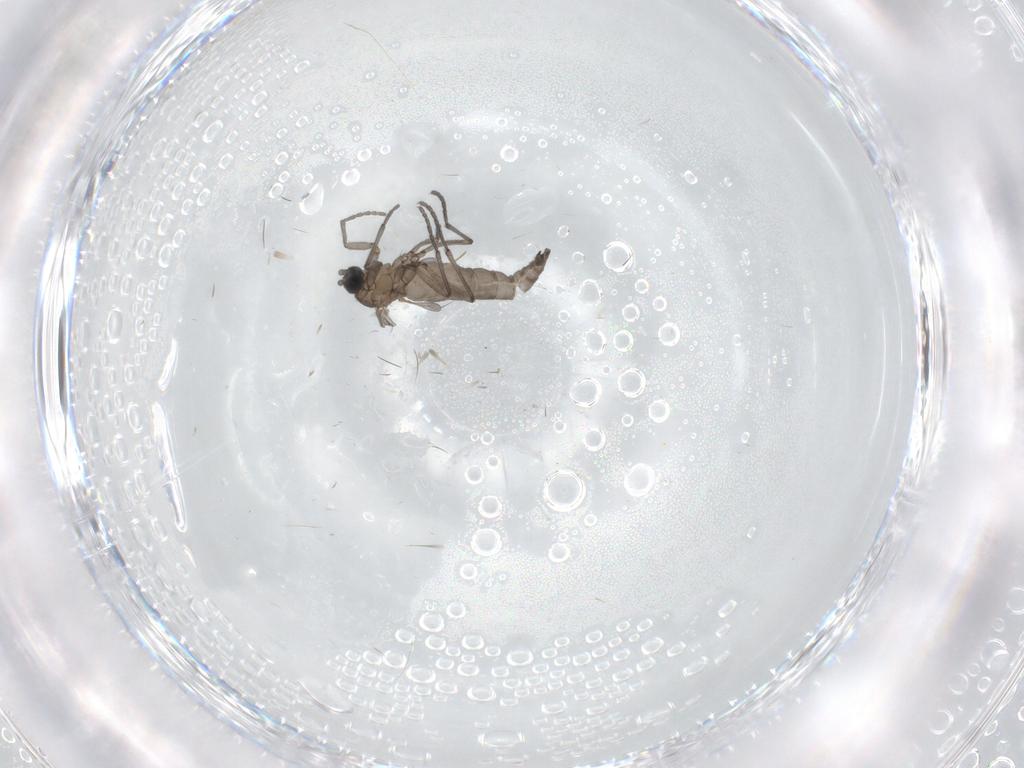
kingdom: Animalia
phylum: Arthropoda
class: Insecta
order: Diptera
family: Sciaridae
